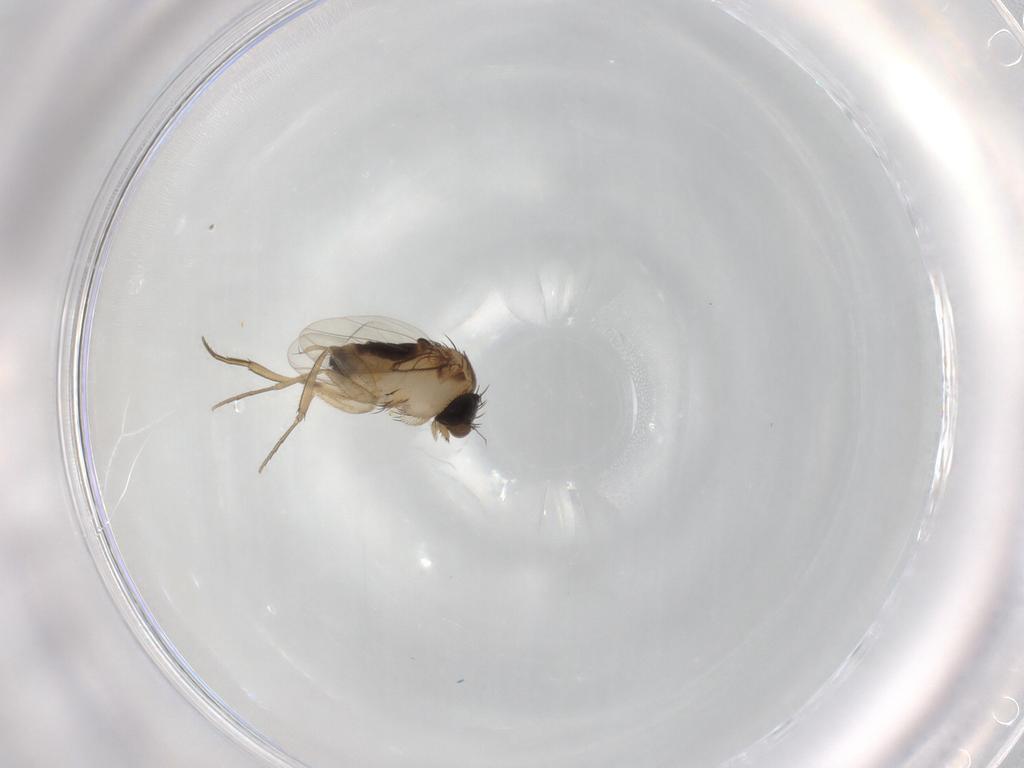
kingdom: Animalia
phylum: Arthropoda
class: Insecta
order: Diptera
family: Phoridae
